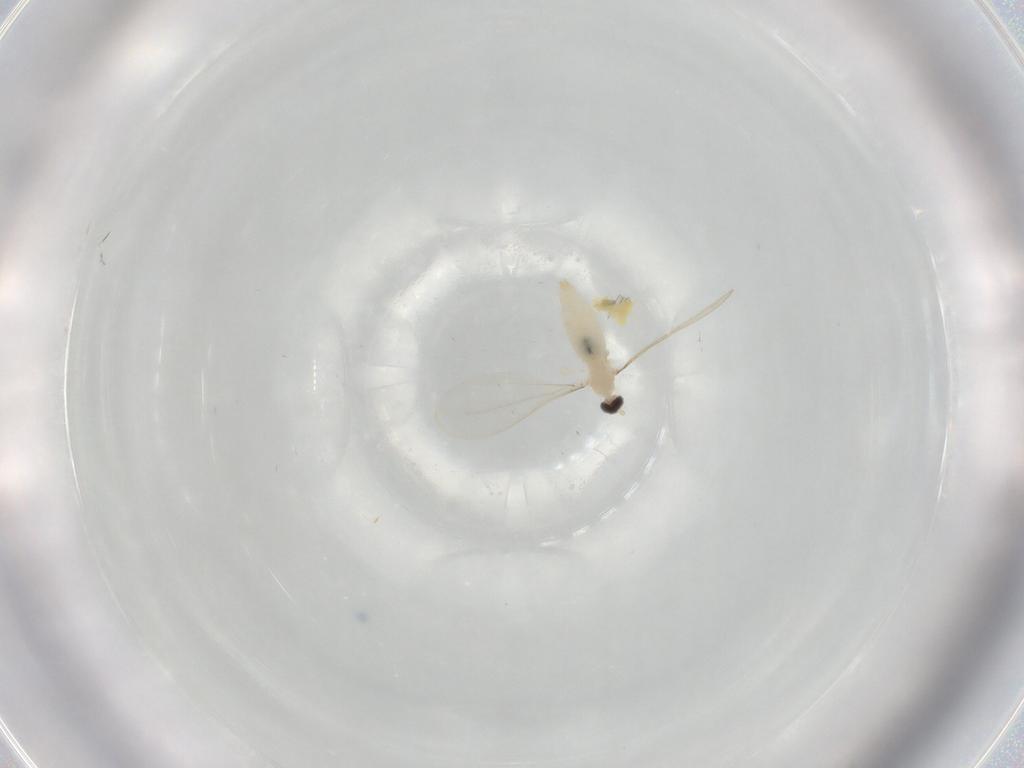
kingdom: Animalia
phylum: Arthropoda
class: Insecta
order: Diptera
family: Cecidomyiidae
